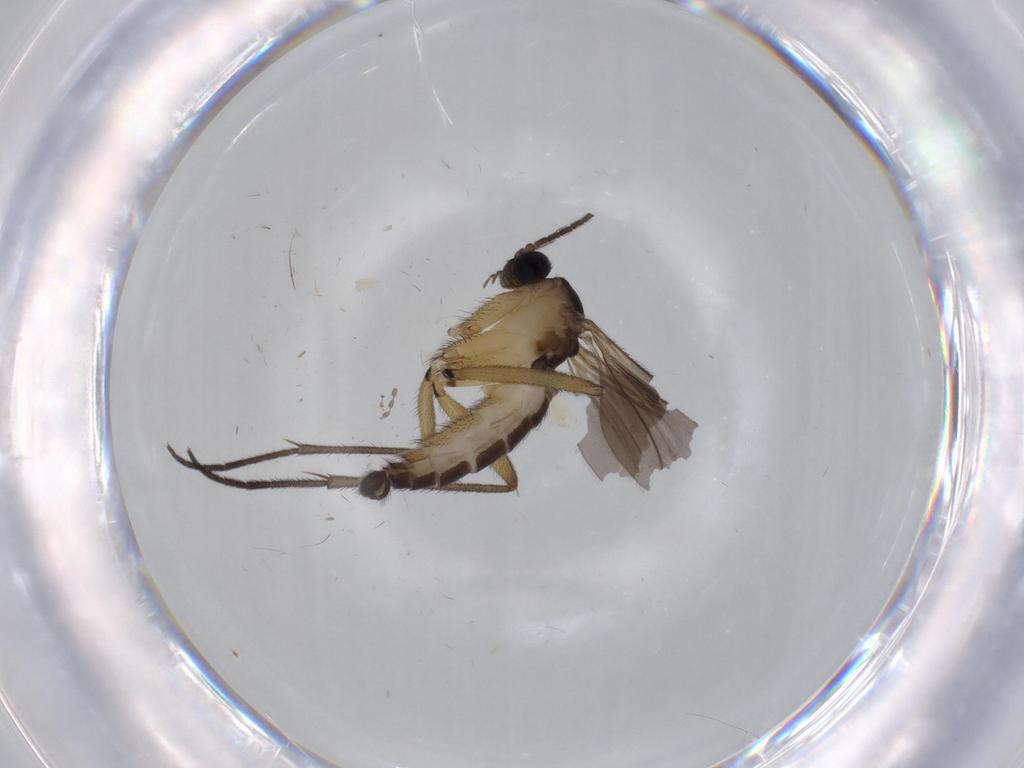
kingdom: Animalia
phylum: Arthropoda
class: Insecta
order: Diptera
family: Sciaridae
